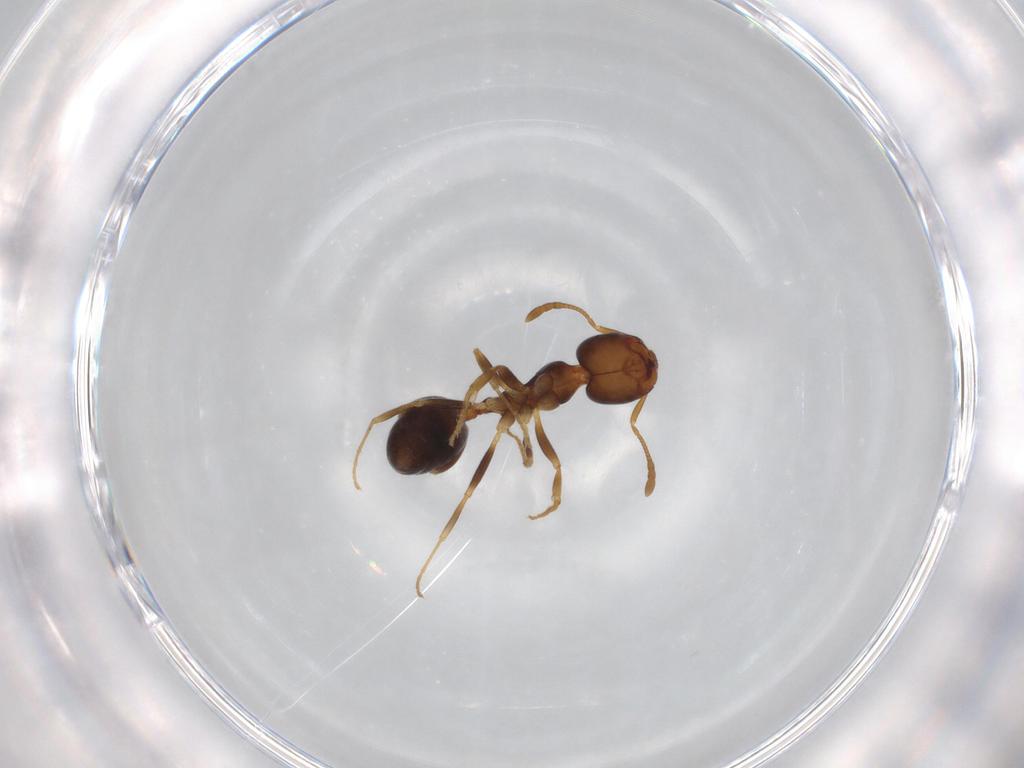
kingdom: Animalia
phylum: Arthropoda
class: Insecta
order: Hymenoptera
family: Formicidae
